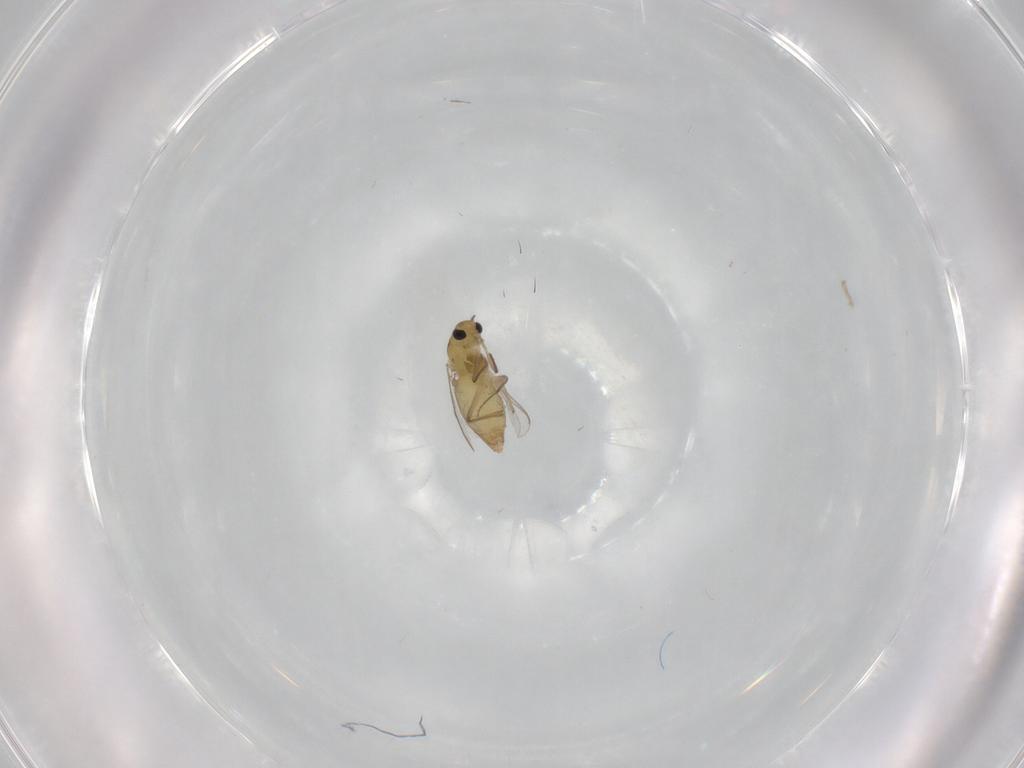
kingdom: Animalia
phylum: Arthropoda
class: Insecta
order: Diptera
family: Chironomidae
